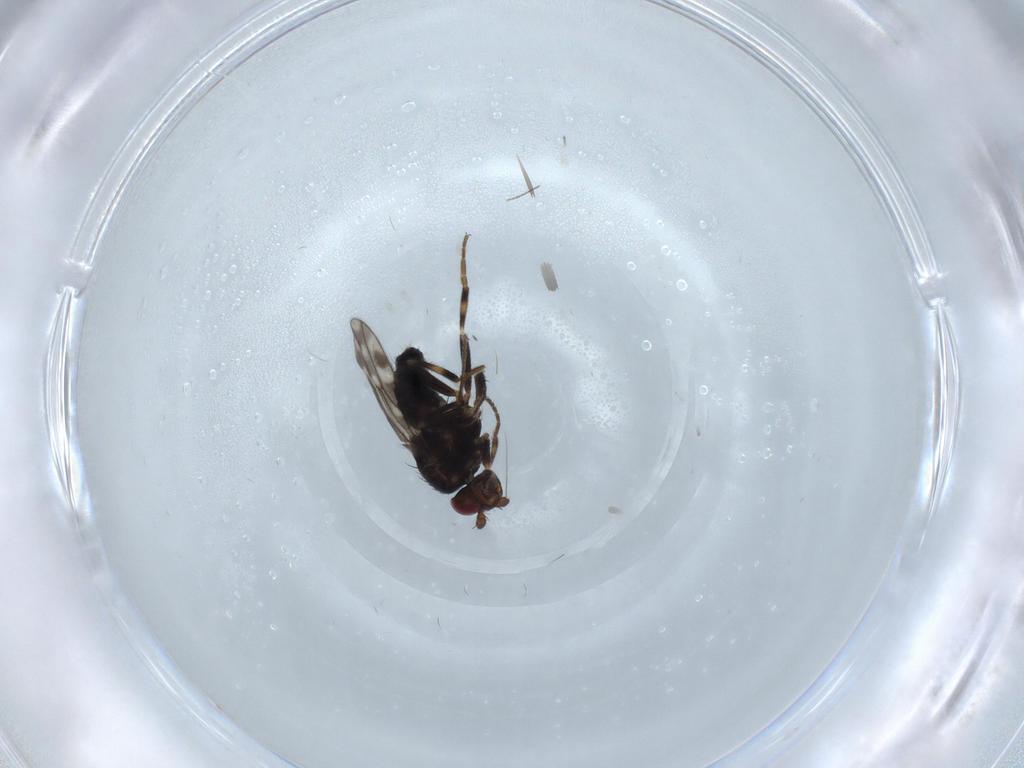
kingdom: Animalia
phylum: Arthropoda
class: Insecta
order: Diptera
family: Sphaeroceridae
